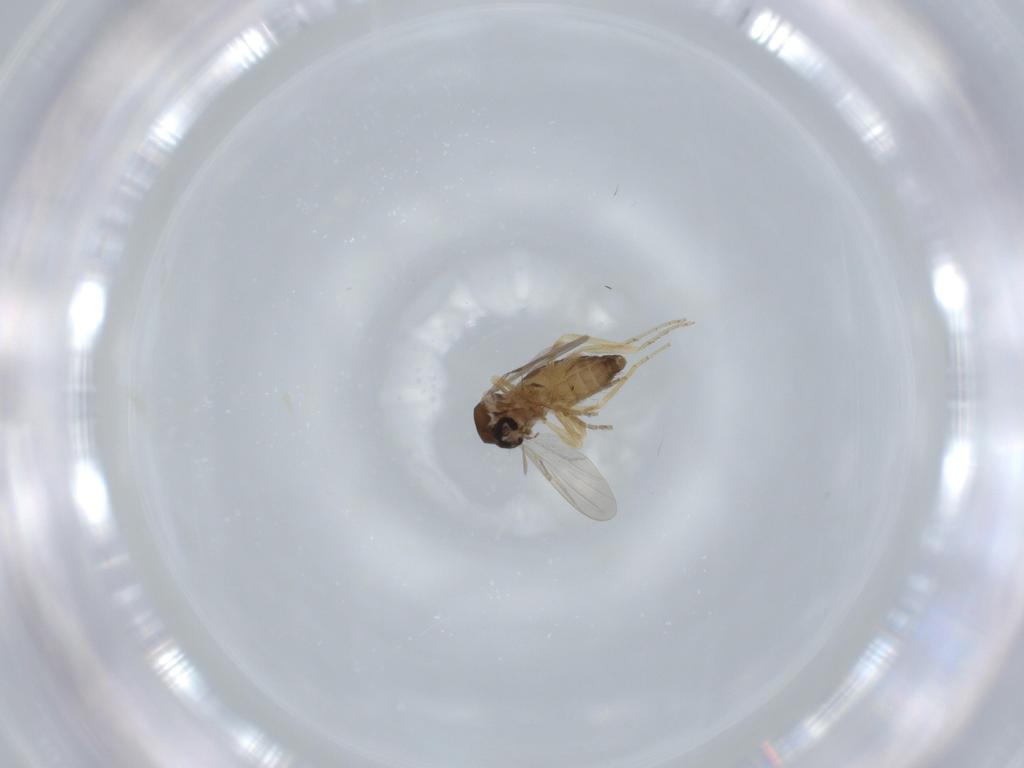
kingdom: Animalia
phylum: Arthropoda
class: Insecta
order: Diptera
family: Ceratopogonidae
